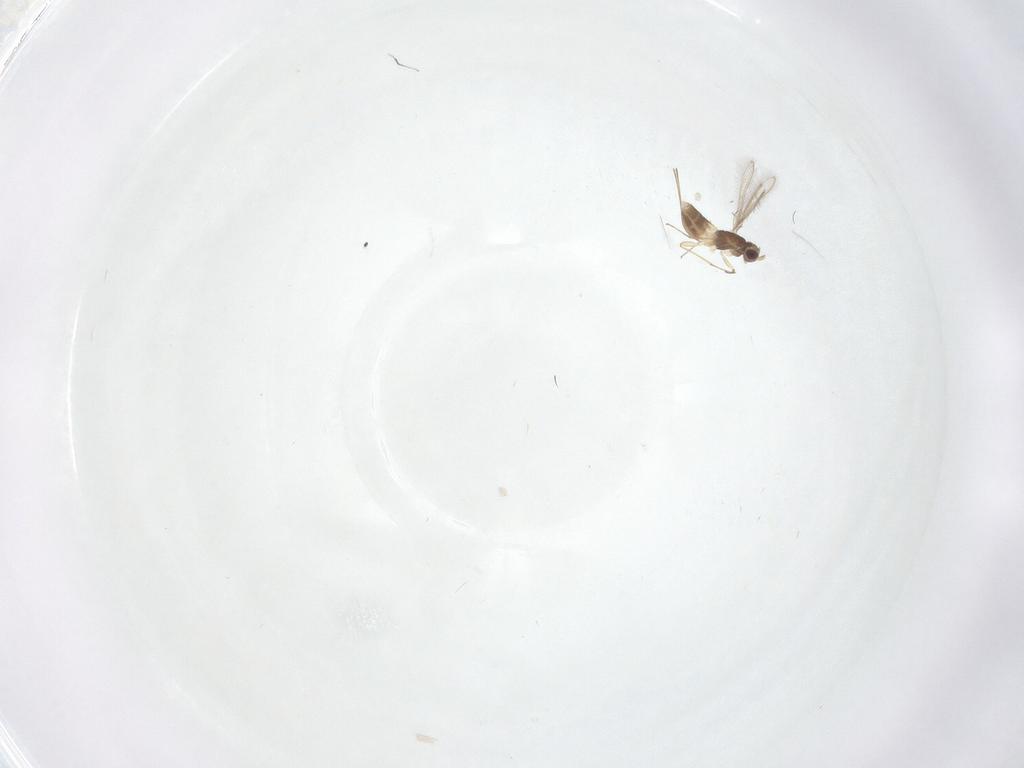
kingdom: Animalia
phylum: Arthropoda
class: Insecta
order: Hymenoptera
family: Mymaridae
